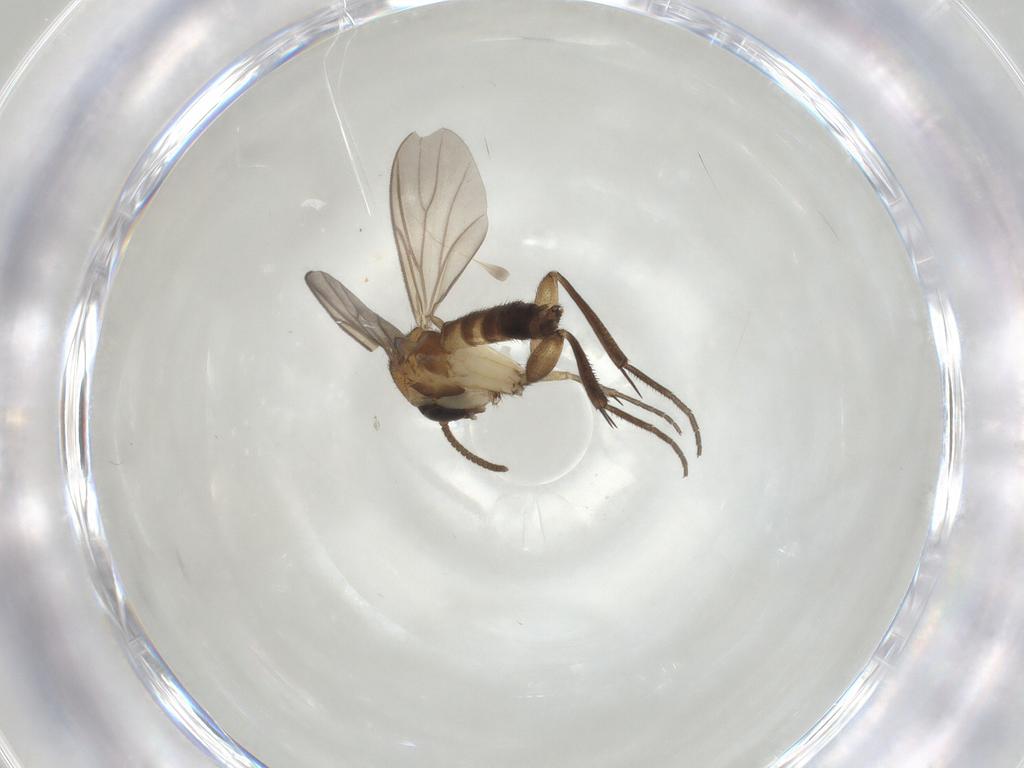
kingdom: Animalia
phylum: Arthropoda
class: Insecta
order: Diptera
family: Mycetophilidae
